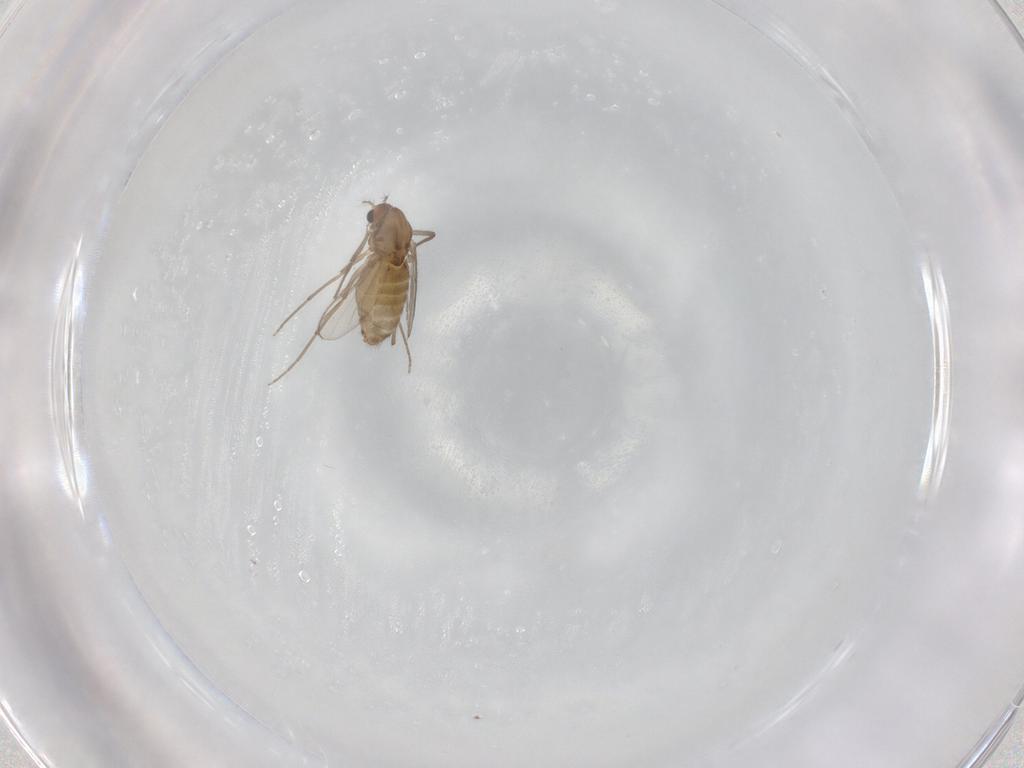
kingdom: Animalia
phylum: Arthropoda
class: Insecta
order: Diptera
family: Chironomidae
